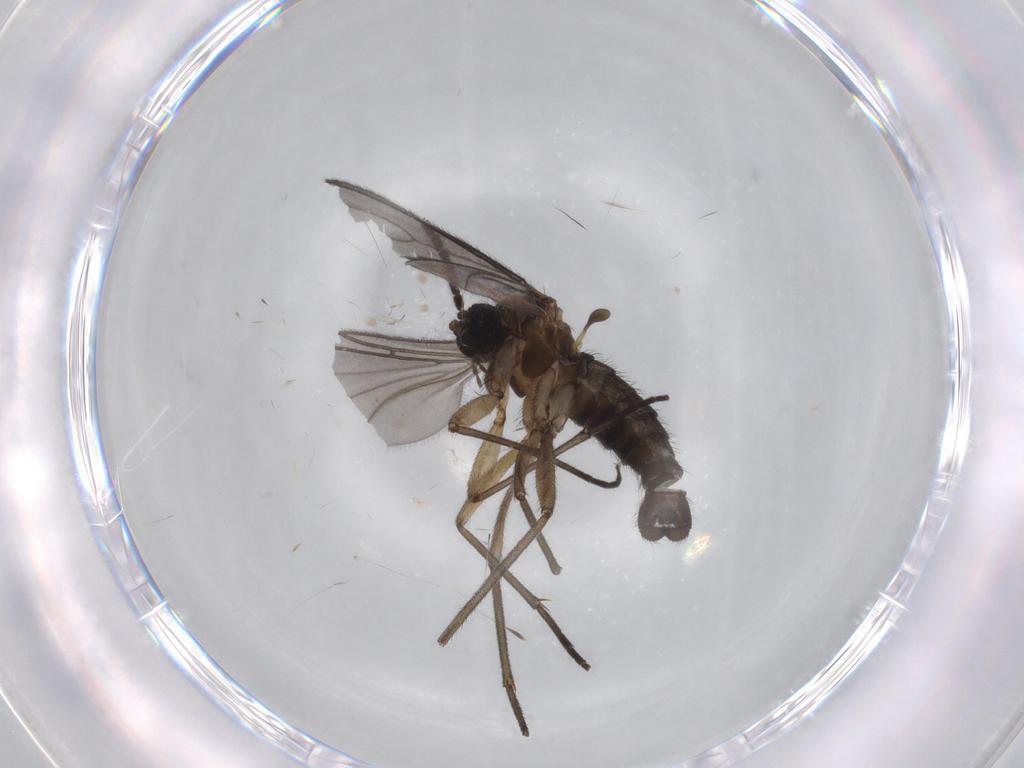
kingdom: Animalia
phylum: Arthropoda
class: Insecta
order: Diptera
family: Sciaridae
